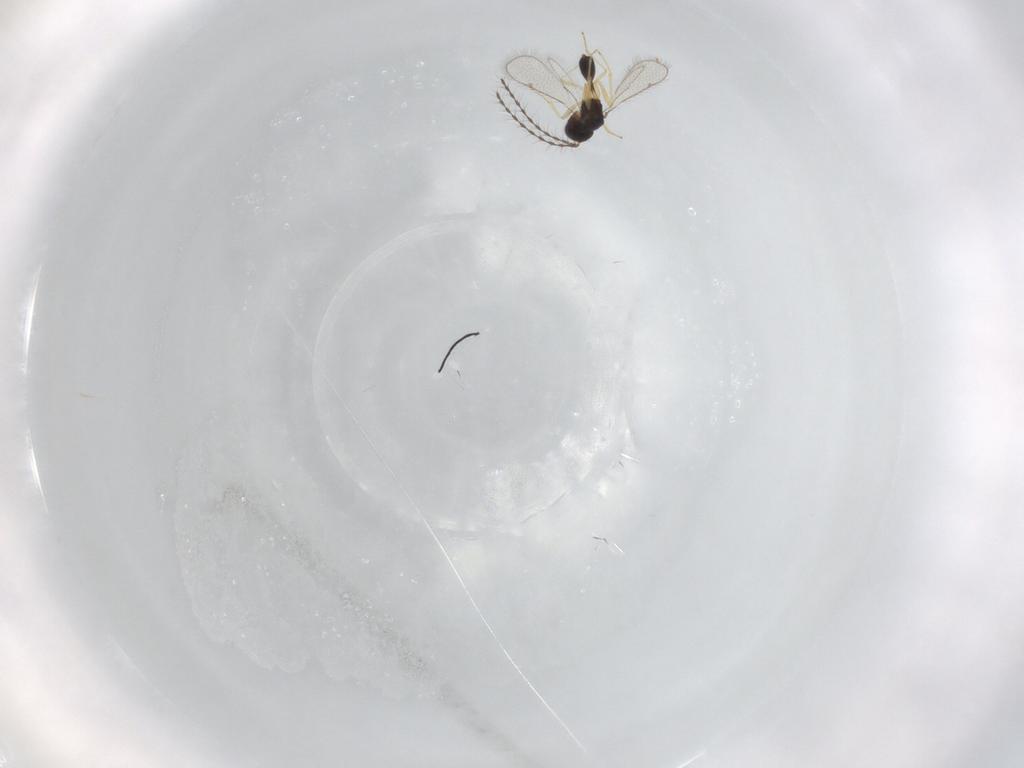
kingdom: Animalia
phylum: Arthropoda
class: Insecta
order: Hymenoptera
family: Diparidae
